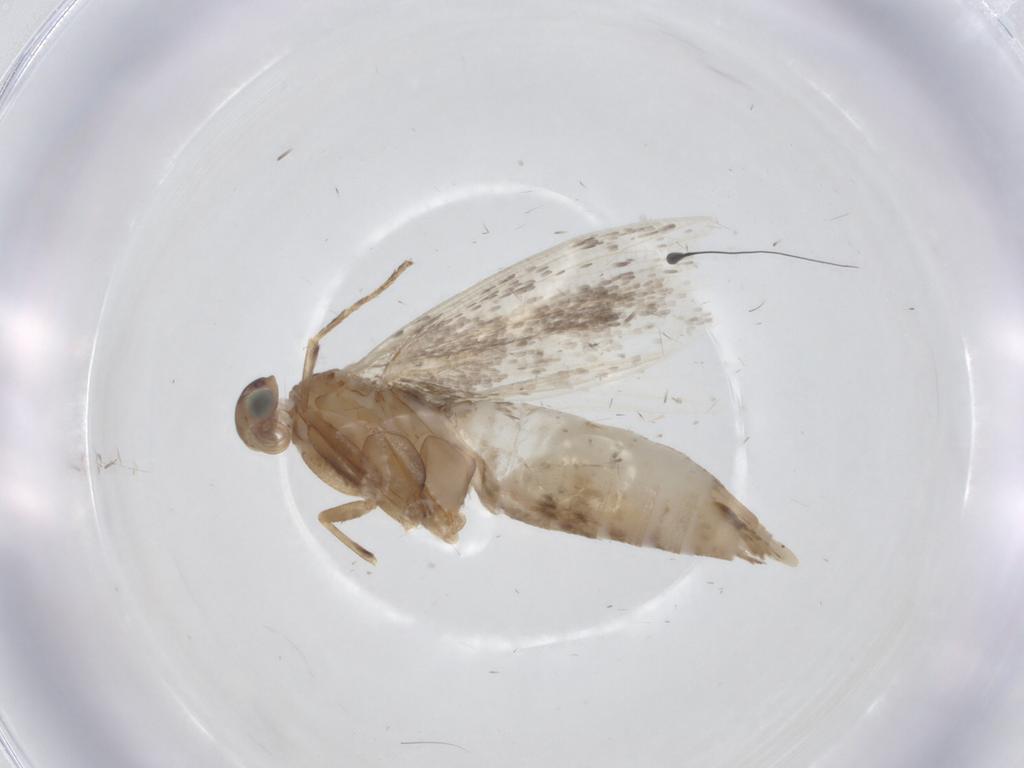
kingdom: Animalia
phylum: Arthropoda
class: Insecta
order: Lepidoptera
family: Glyphipterigidae
